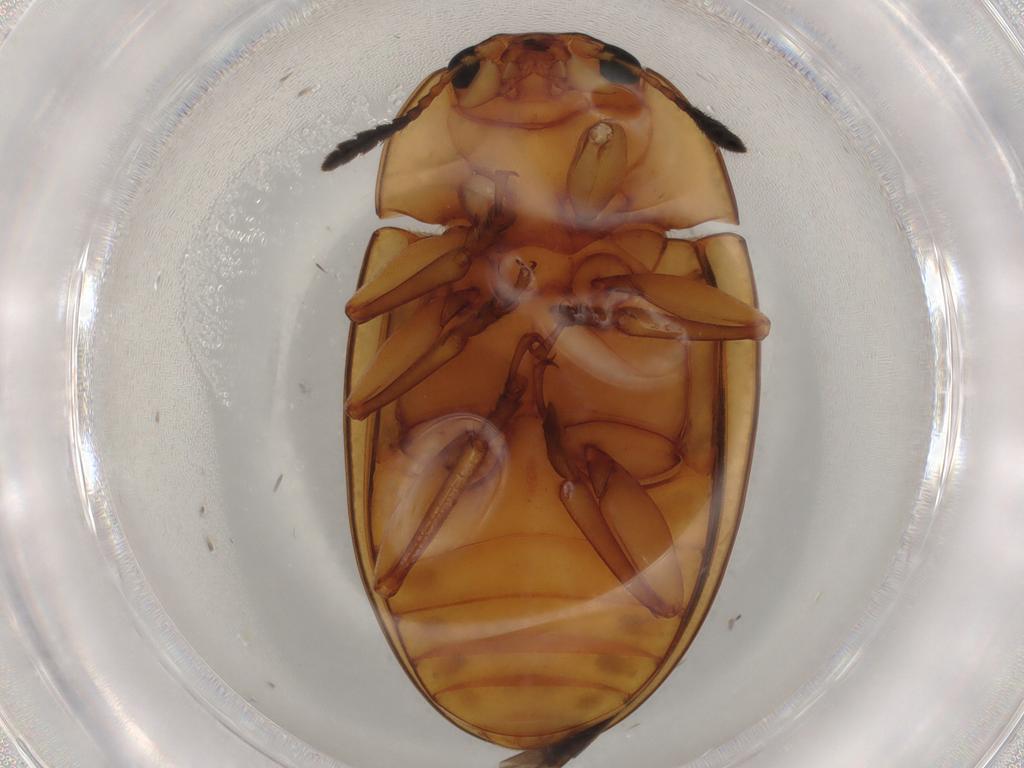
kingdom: Animalia
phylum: Arthropoda
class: Insecta
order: Coleoptera
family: Erotylidae
